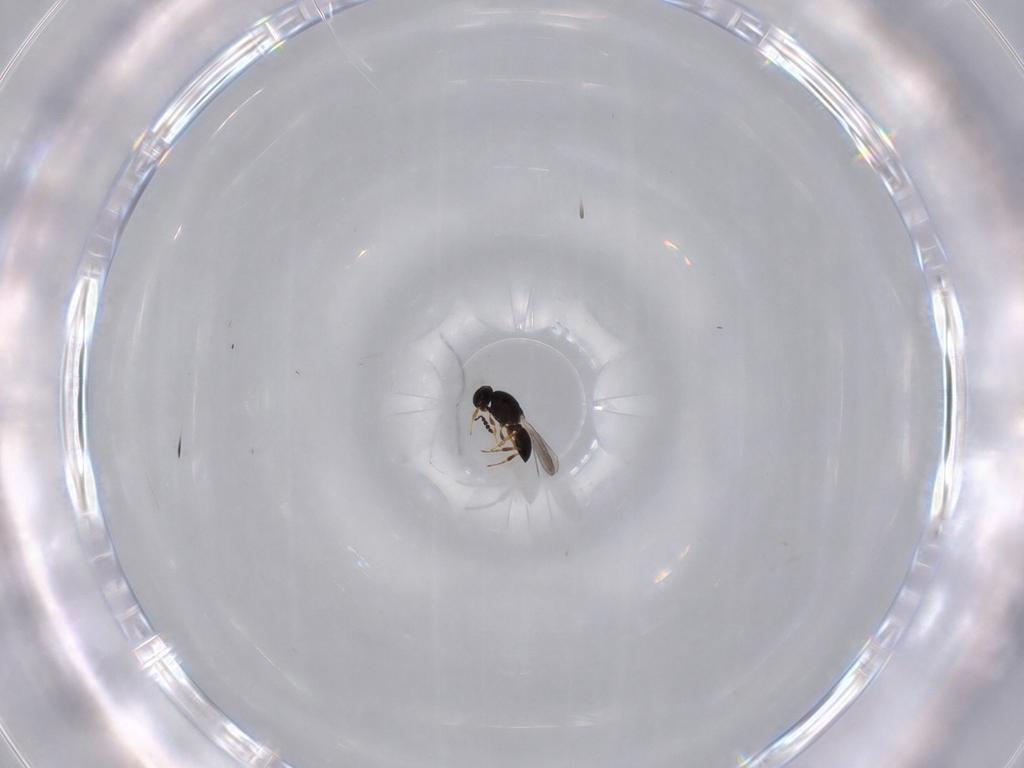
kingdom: Animalia
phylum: Arthropoda
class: Insecta
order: Hymenoptera
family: Platygastridae
